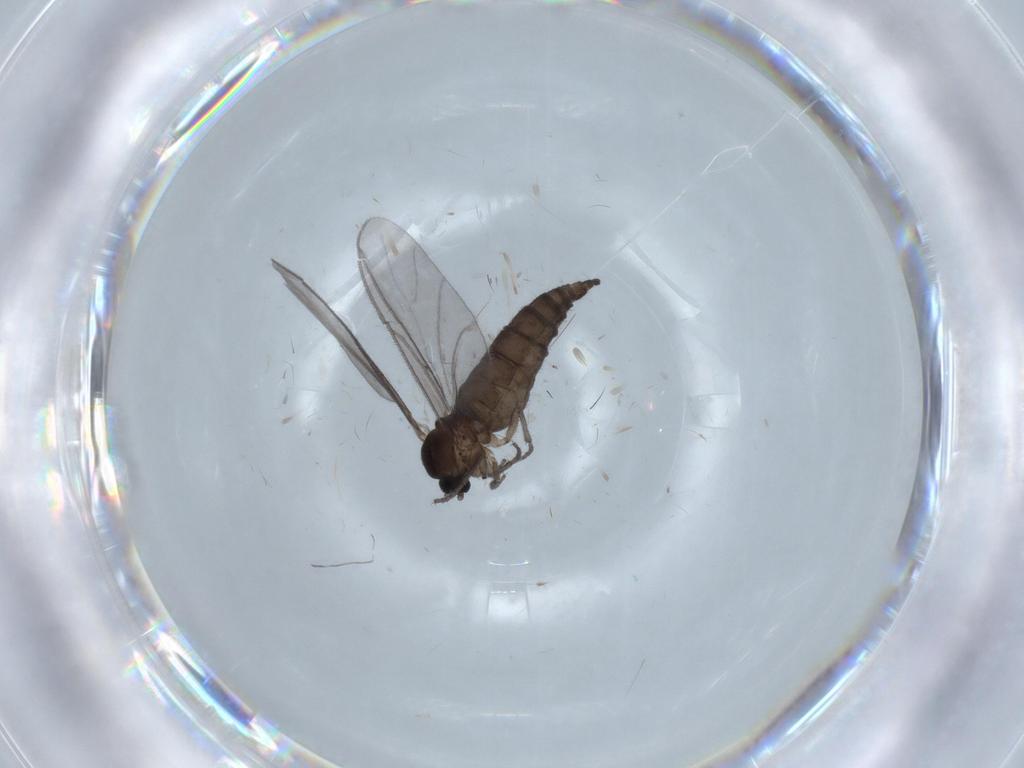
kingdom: Animalia
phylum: Arthropoda
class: Insecta
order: Diptera
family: Sciaridae
